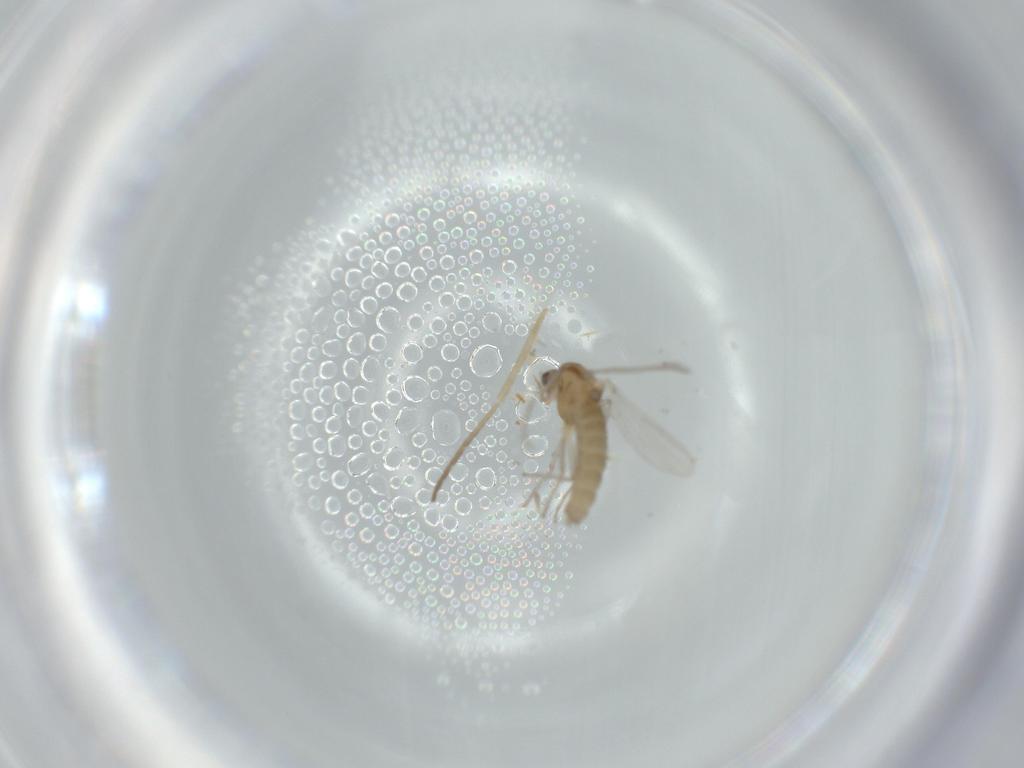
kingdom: Animalia
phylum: Arthropoda
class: Insecta
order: Diptera
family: Chironomidae
